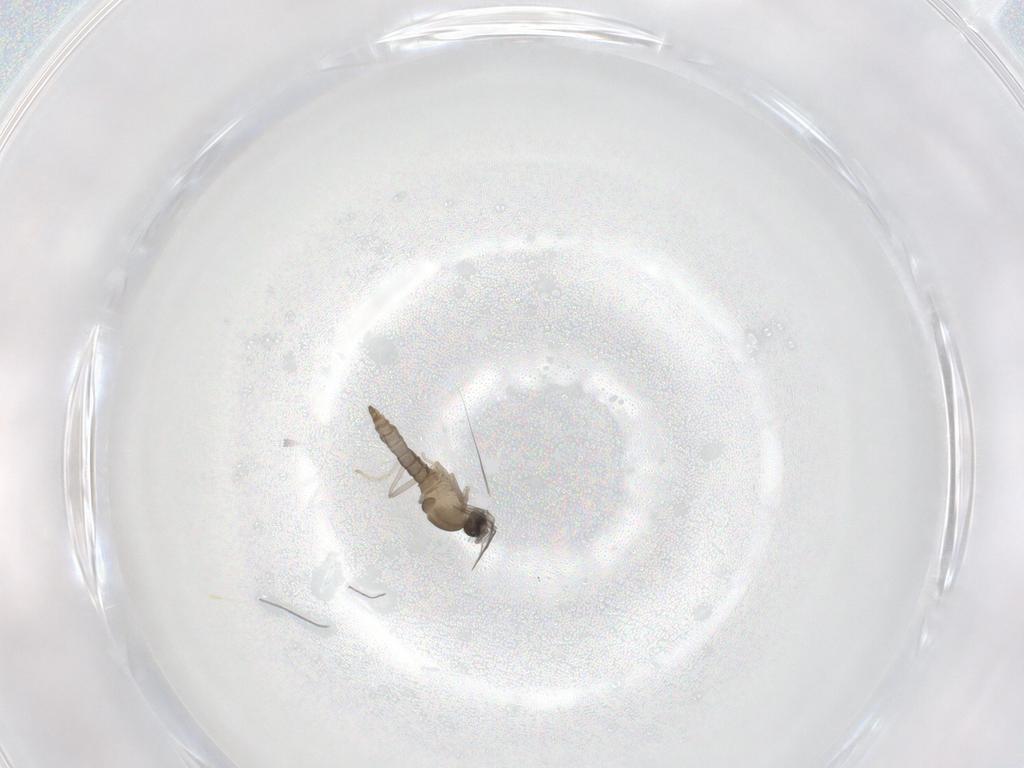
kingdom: Animalia
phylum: Arthropoda
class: Insecta
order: Diptera
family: Cecidomyiidae
